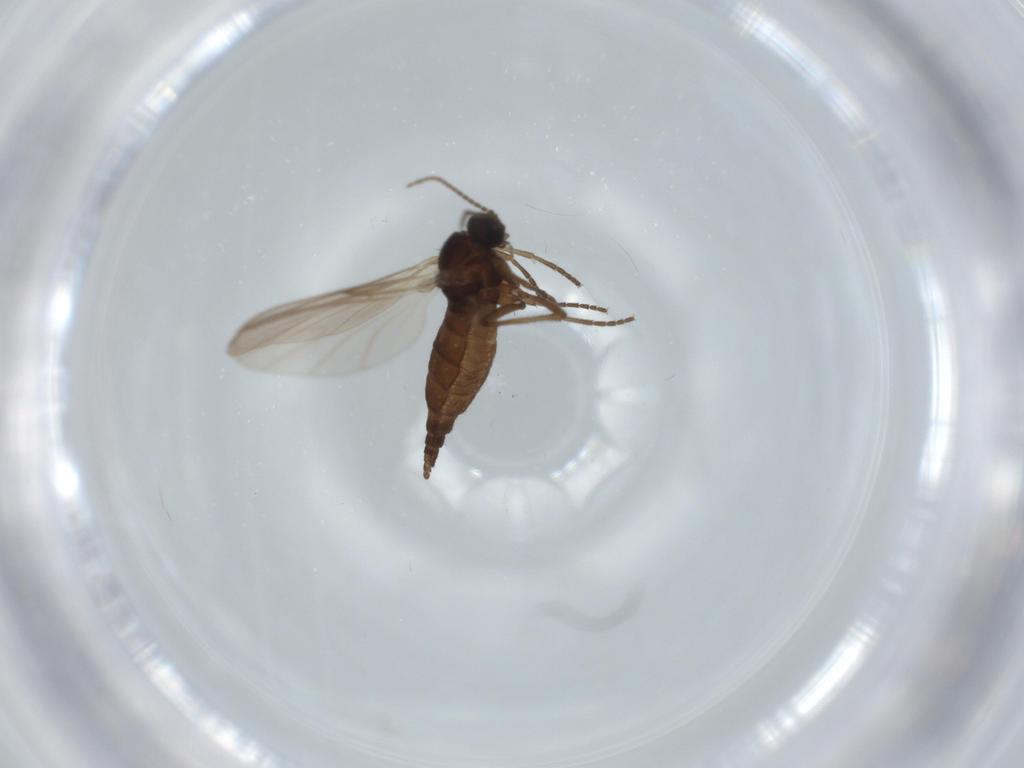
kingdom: Animalia
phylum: Arthropoda
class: Insecta
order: Diptera
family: Sciaridae
